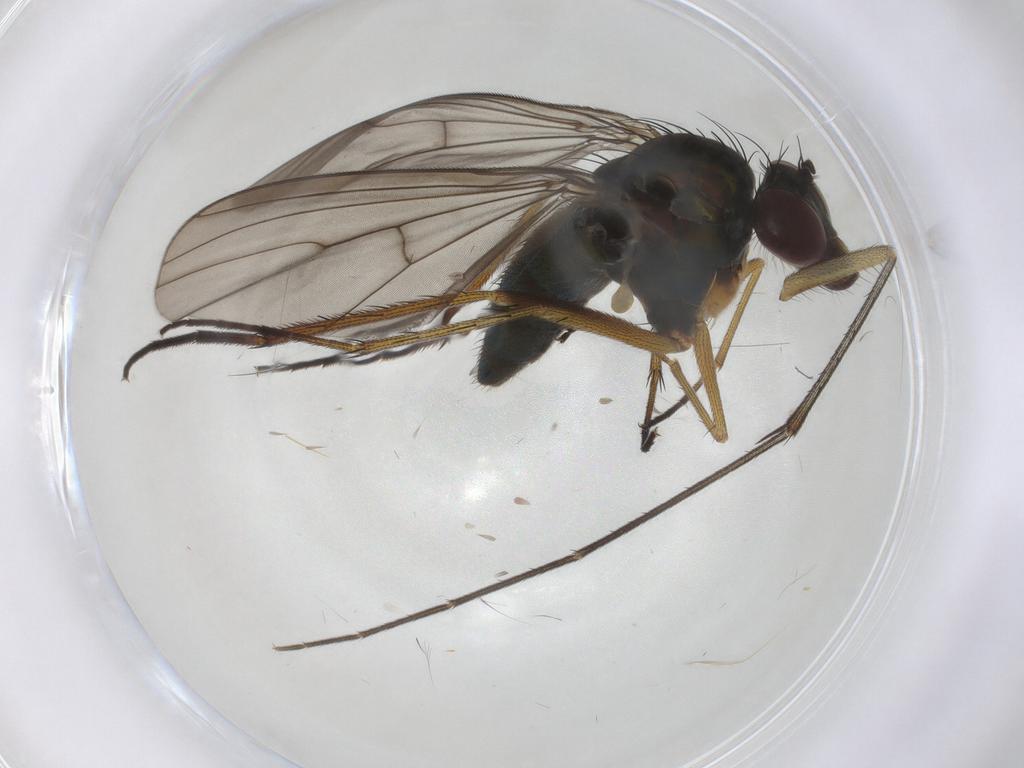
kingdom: Animalia
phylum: Arthropoda
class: Insecta
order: Diptera
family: Dolichopodidae
